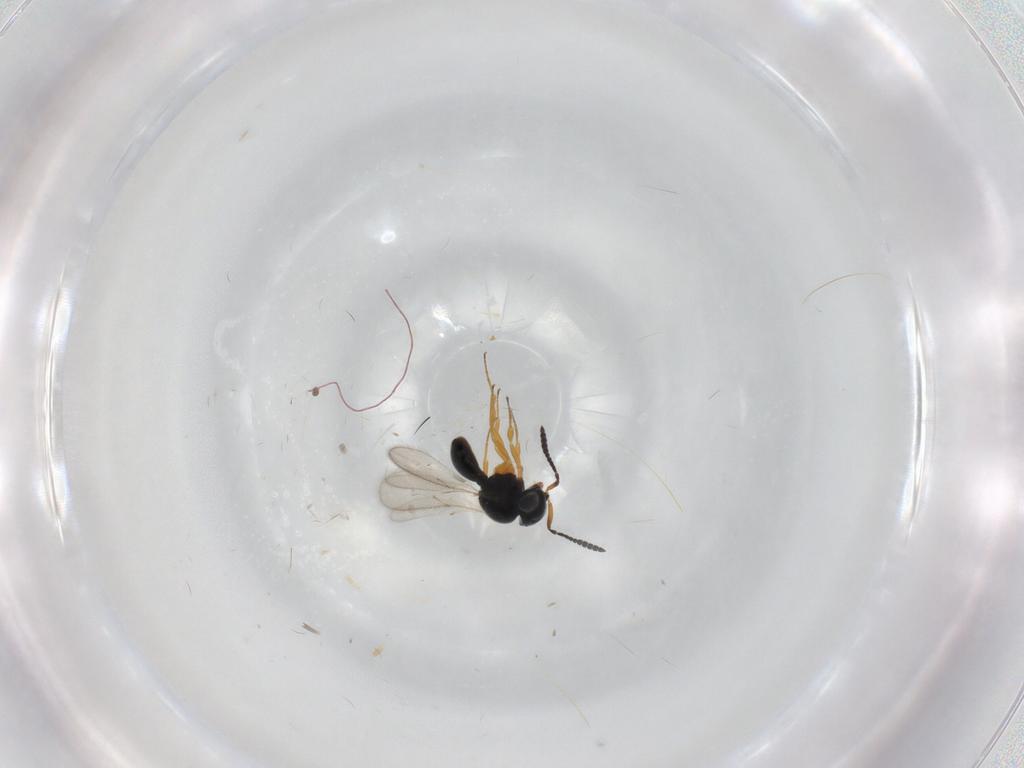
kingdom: Animalia
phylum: Arthropoda
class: Insecta
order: Hymenoptera
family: Scelionidae
